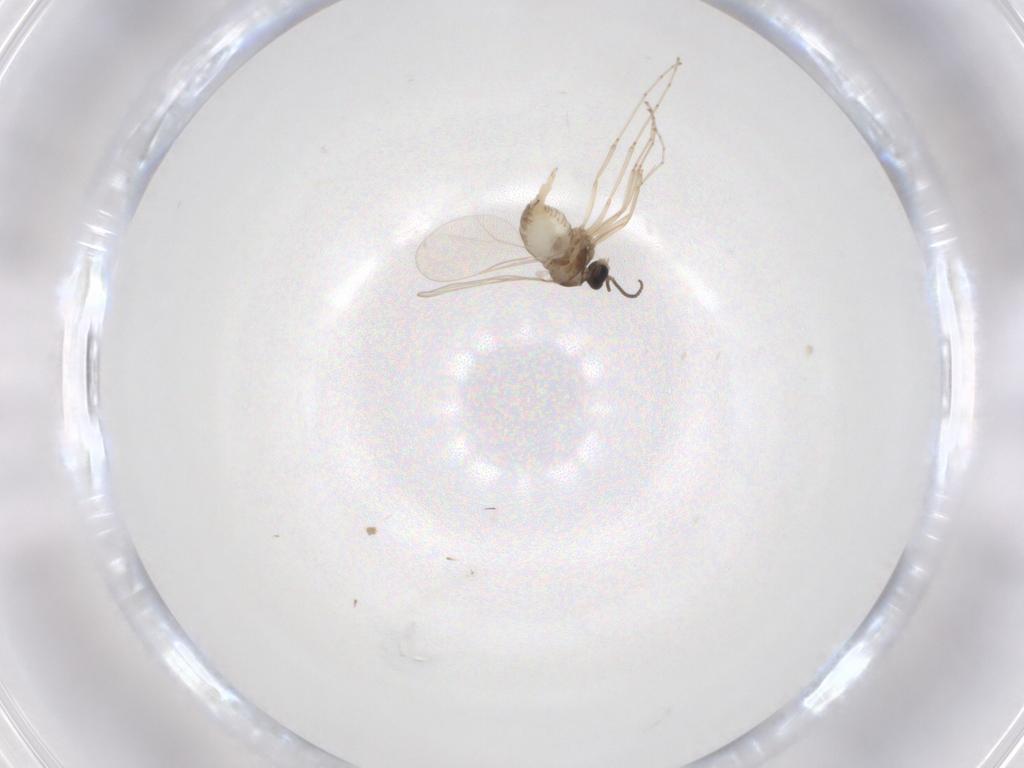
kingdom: Animalia
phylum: Arthropoda
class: Insecta
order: Diptera
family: Cecidomyiidae
